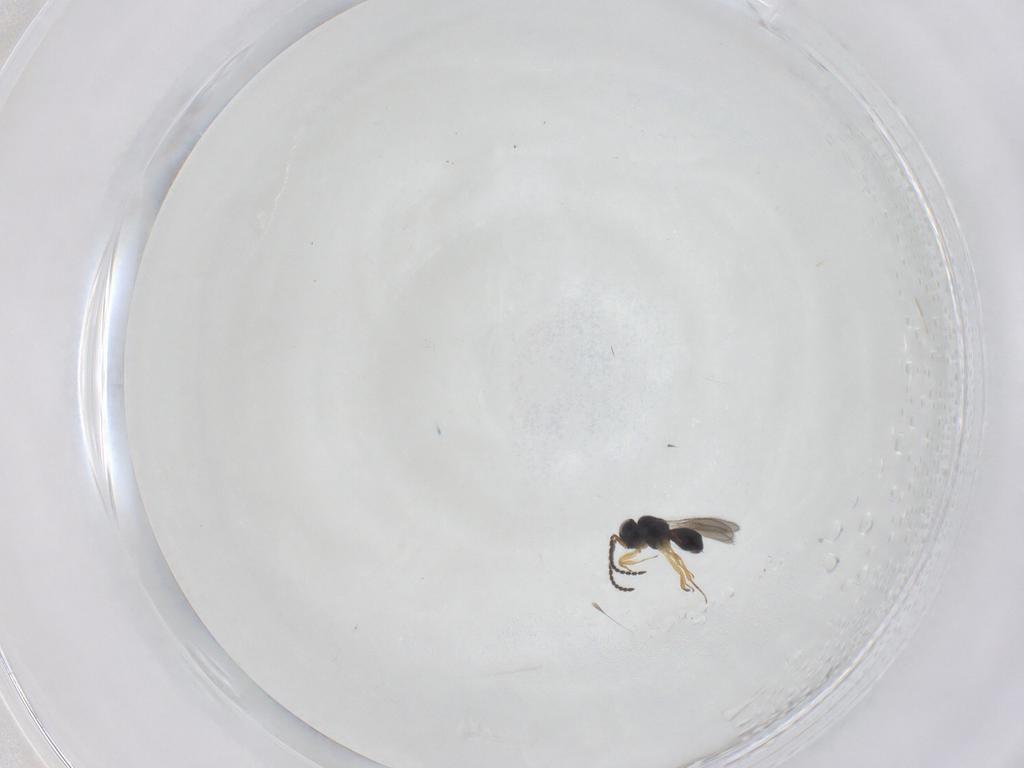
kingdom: Animalia
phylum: Arthropoda
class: Insecta
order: Hymenoptera
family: Scelionidae
